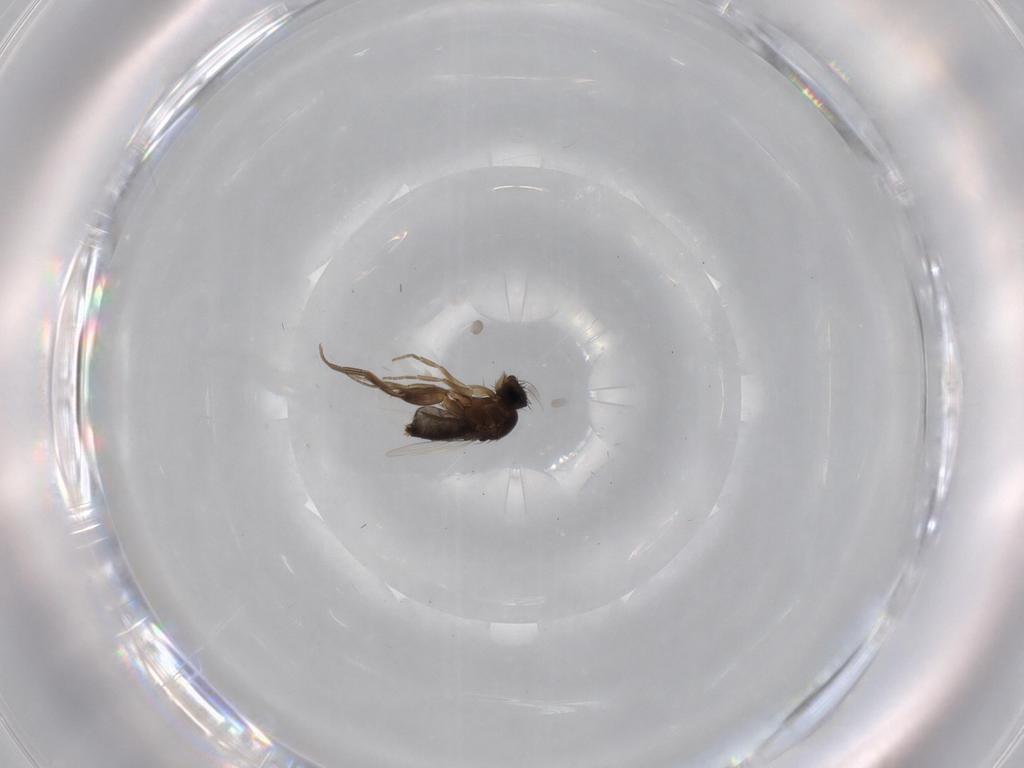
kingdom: Animalia
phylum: Arthropoda
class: Insecta
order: Diptera
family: Phoridae
